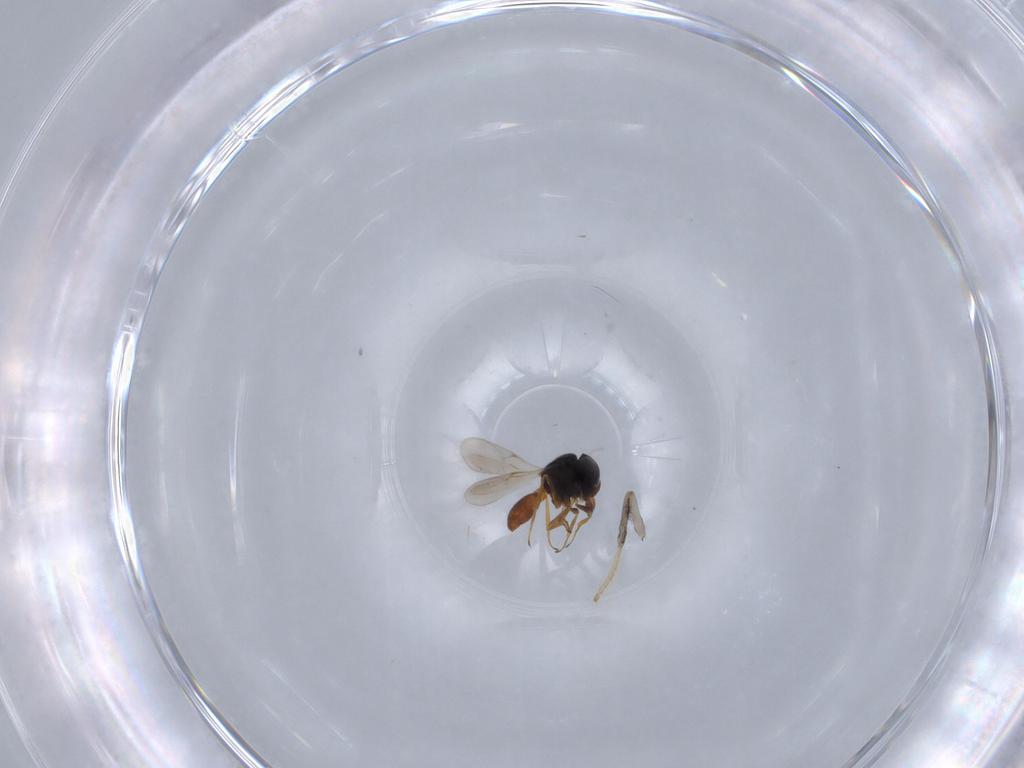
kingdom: Animalia
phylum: Arthropoda
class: Insecta
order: Hymenoptera
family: Scelionidae
